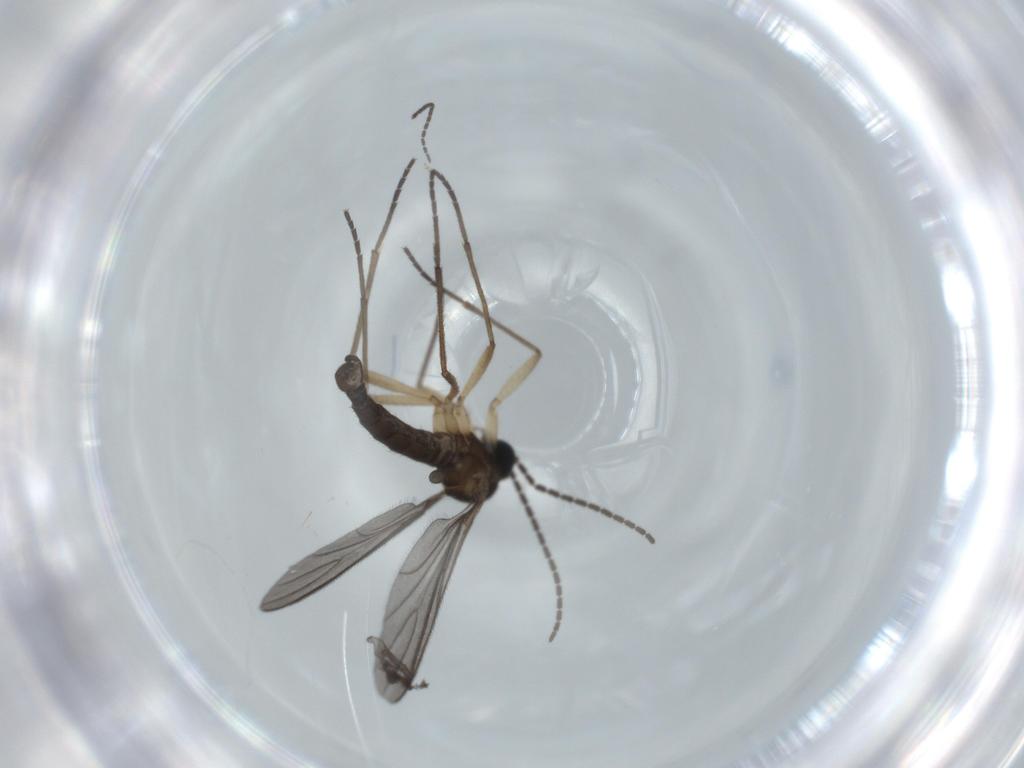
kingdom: Animalia
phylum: Arthropoda
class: Insecta
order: Diptera
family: Sciaridae
